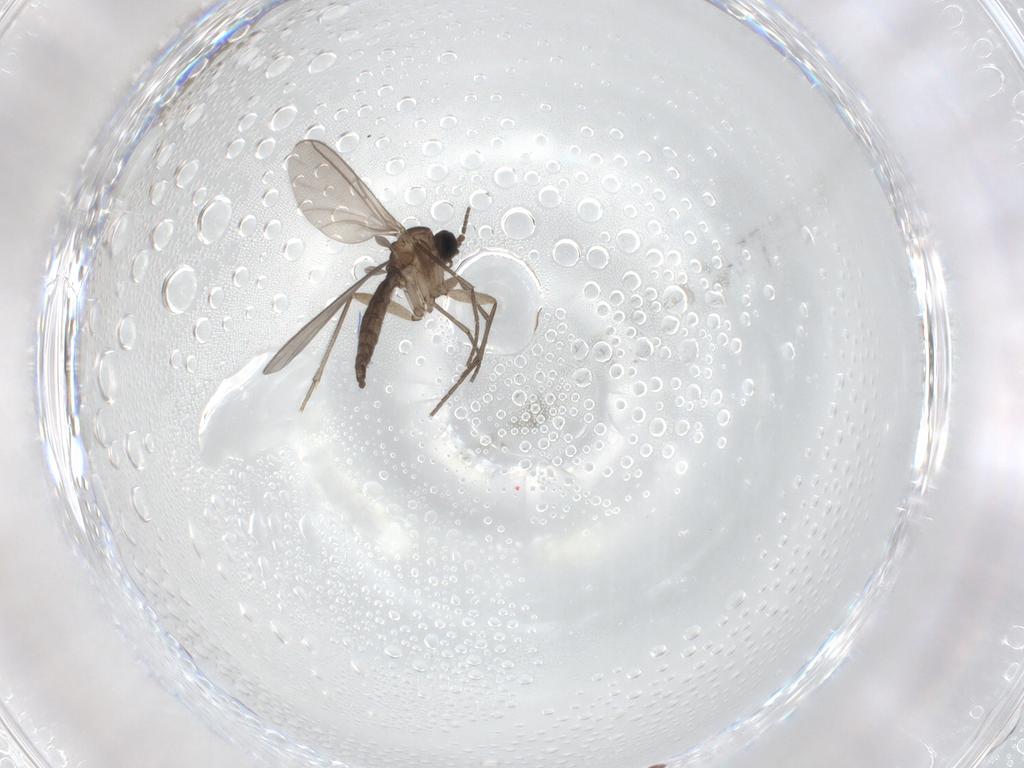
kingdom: Animalia
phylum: Arthropoda
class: Insecta
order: Diptera
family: Sciaridae
